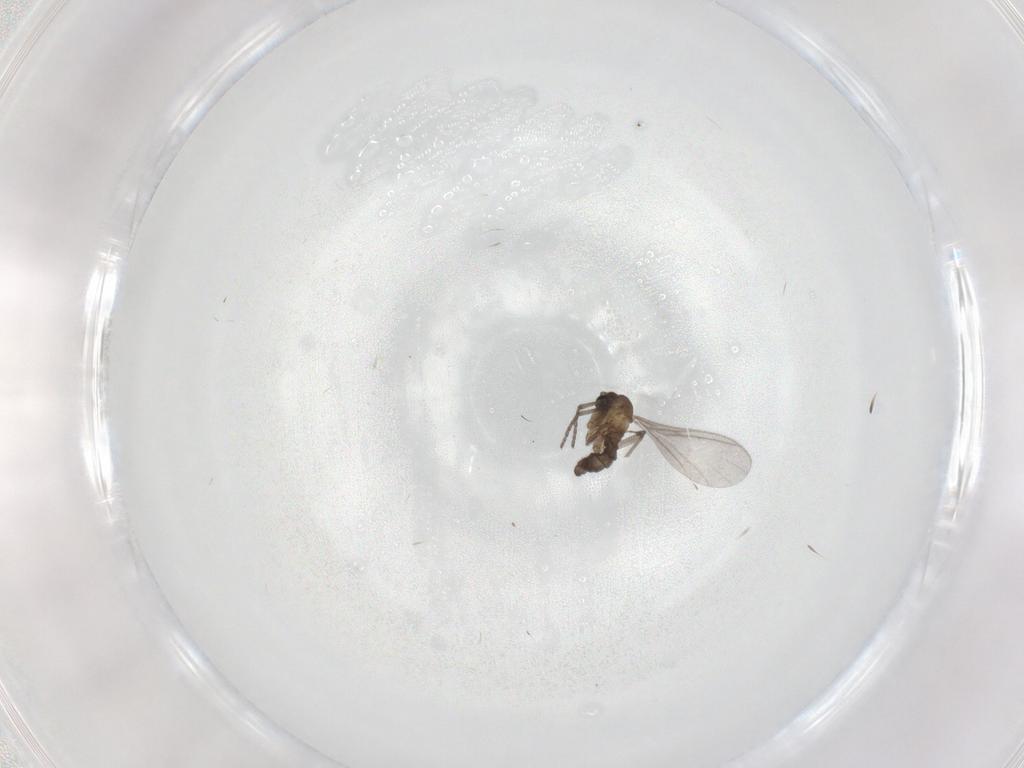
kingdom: Animalia
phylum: Arthropoda
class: Insecta
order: Diptera
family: Sciaridae
